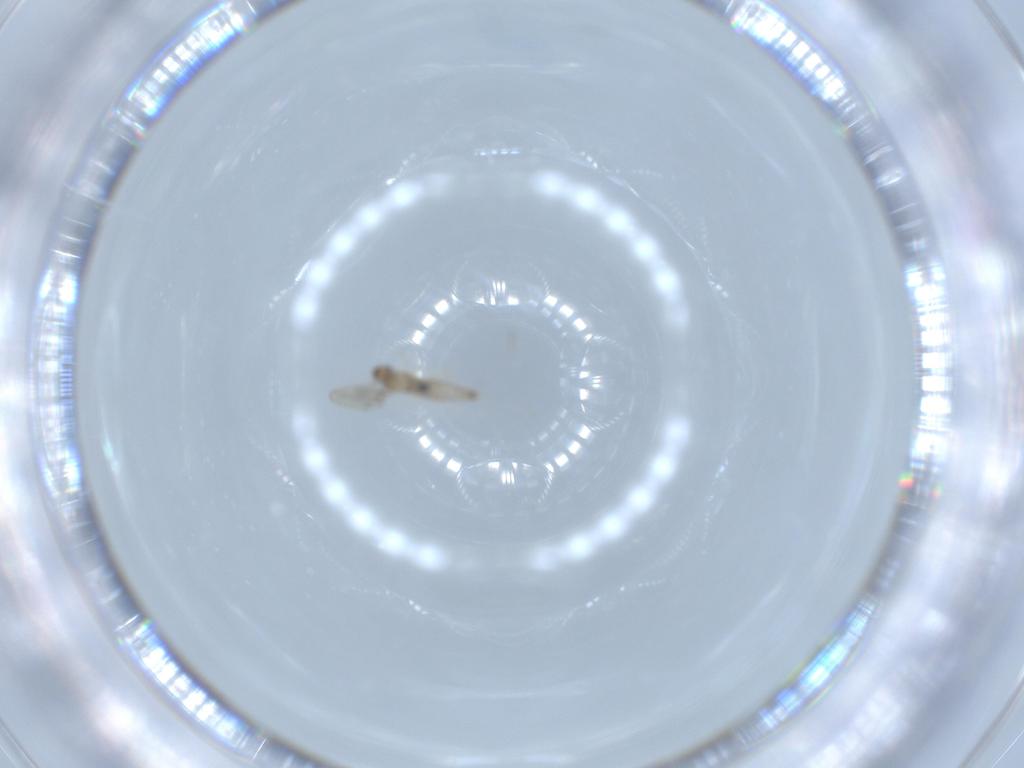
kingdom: Animalia
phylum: Arthropoda
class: Insecta
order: Diptera
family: Cecidomyiidae
